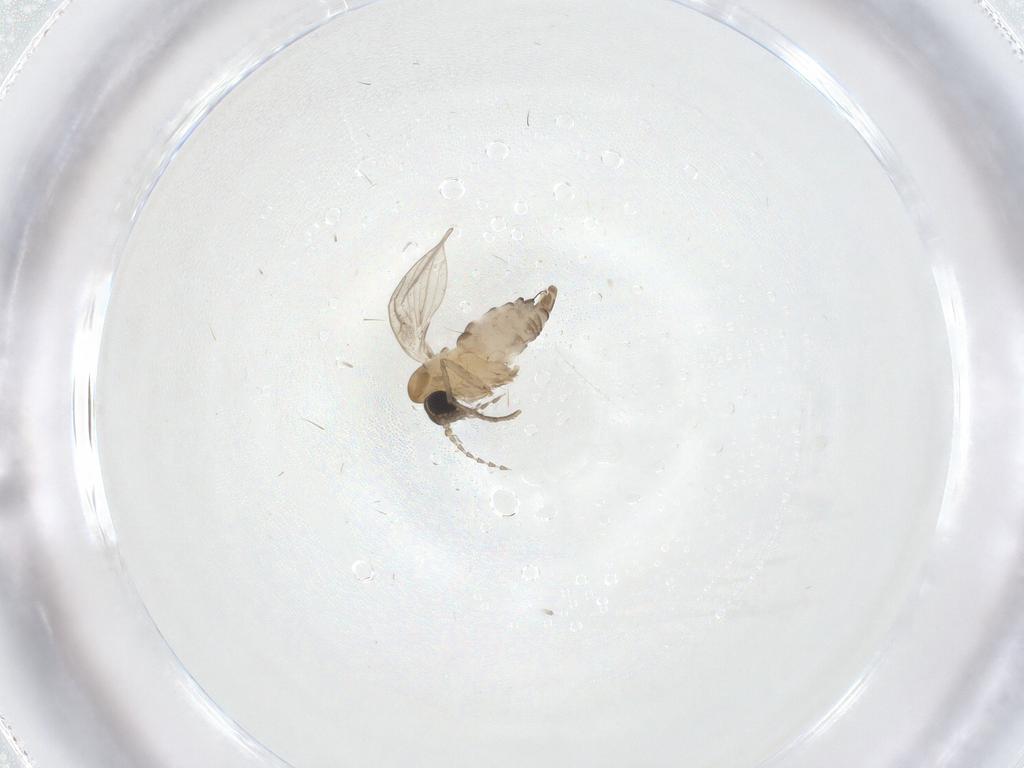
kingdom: Animalia
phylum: Arthropoda
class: Insecta
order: Diptera
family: Psychodidae
